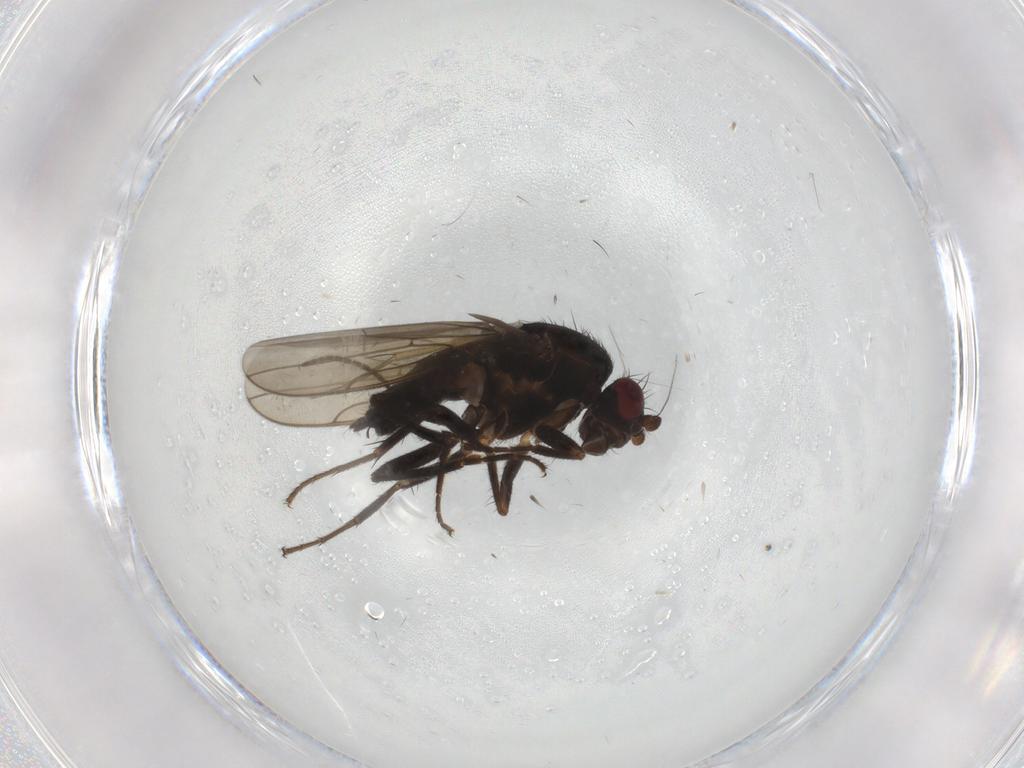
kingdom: Animalia
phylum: Arthropoda
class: Insecta
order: Diptera
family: Sphaeroceridae
